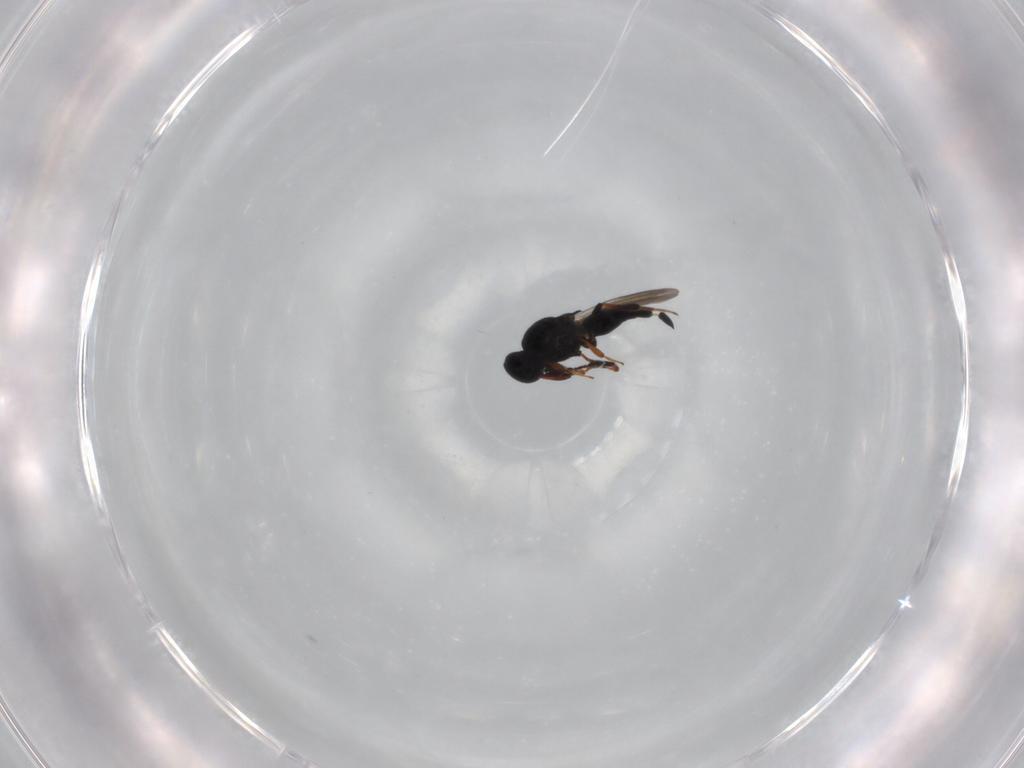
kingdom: Animalia
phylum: Arthropoda
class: Insecta
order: Hymenoptera
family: Platygastridae
